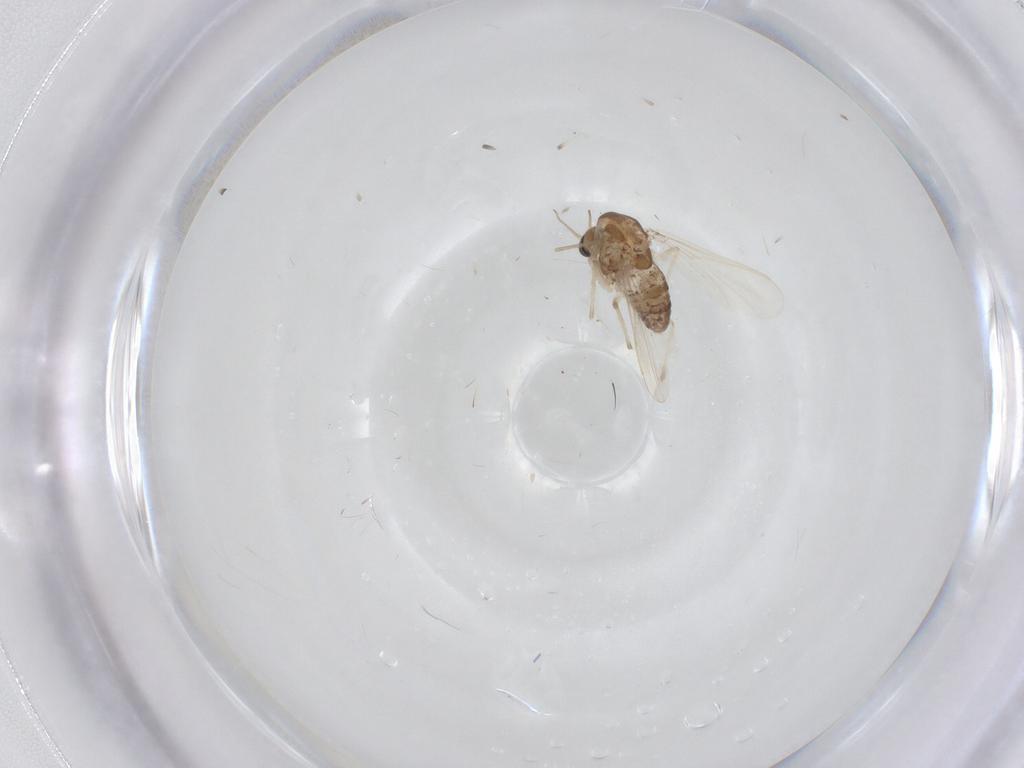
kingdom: Animalia
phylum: Arthropoda
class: Insecta
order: Diptera
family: Chironomidae
